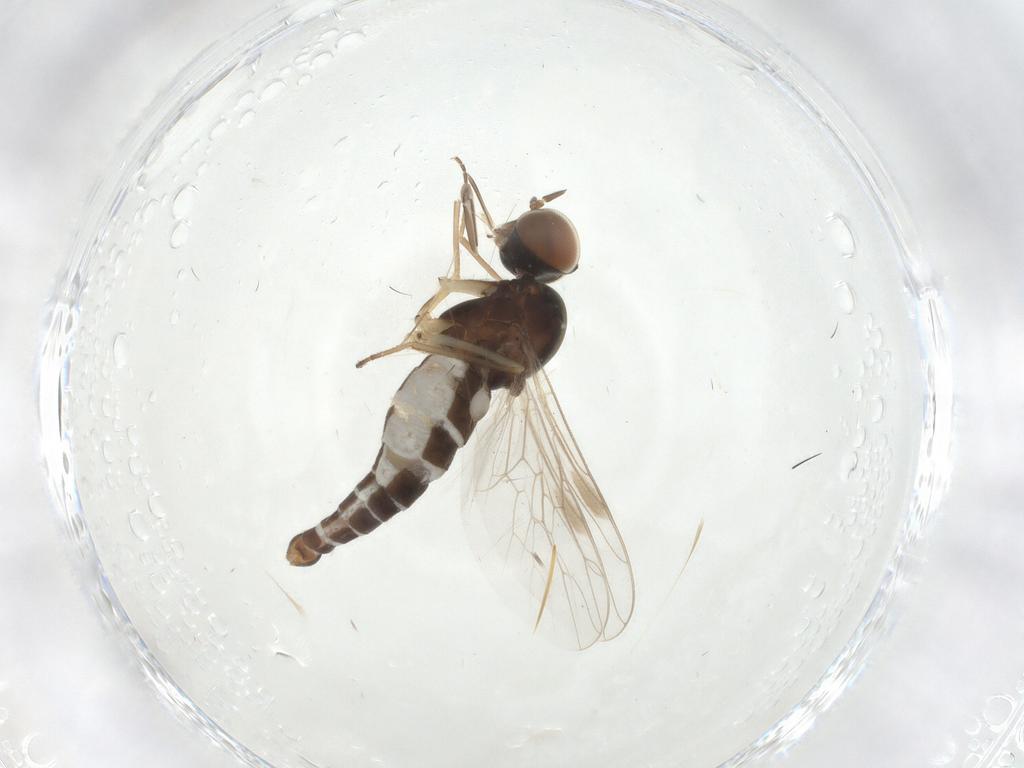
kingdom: Animalia
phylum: Arthropoda
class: Insecta
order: Diptera
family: Scenopinidae
